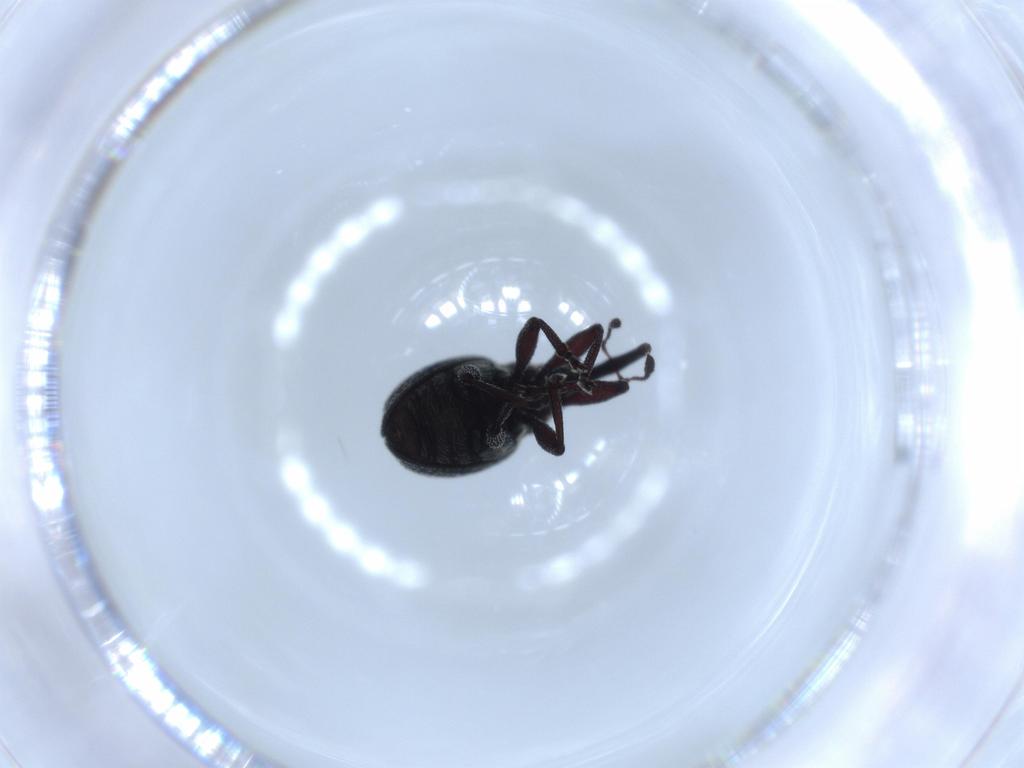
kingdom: Animalia
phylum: Arthropoda
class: Insecta
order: Coleoptera
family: Brentidae
